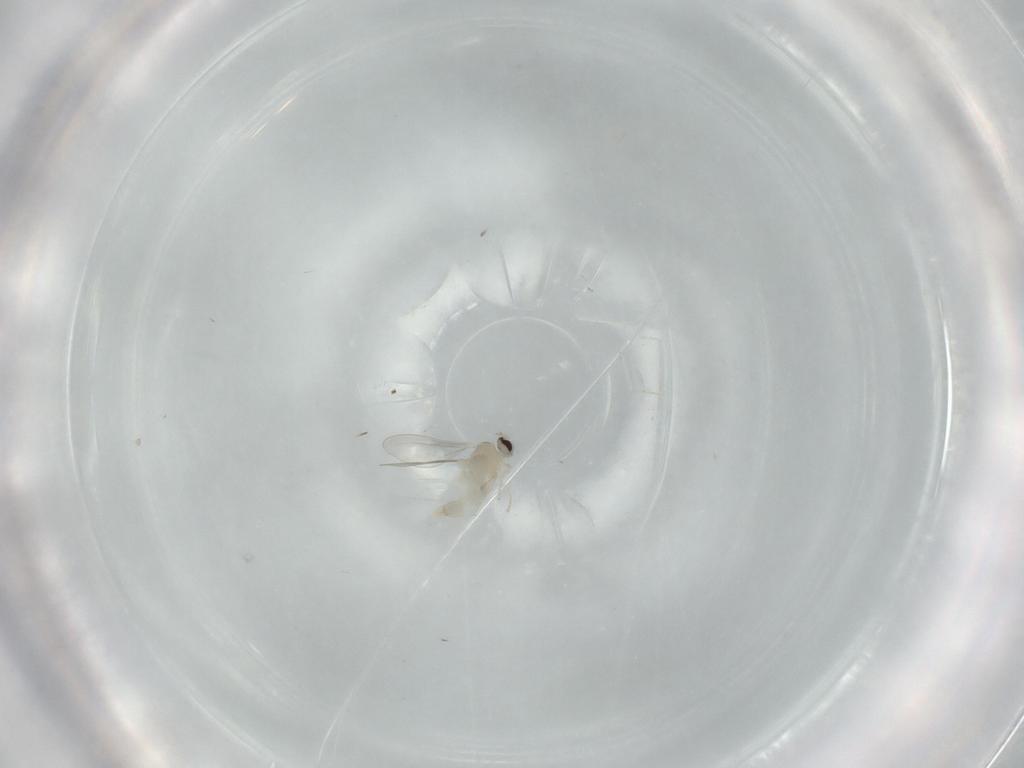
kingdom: Animalia
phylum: Arthropoda
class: Insecta
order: Diptera
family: Cecidomyiidae
